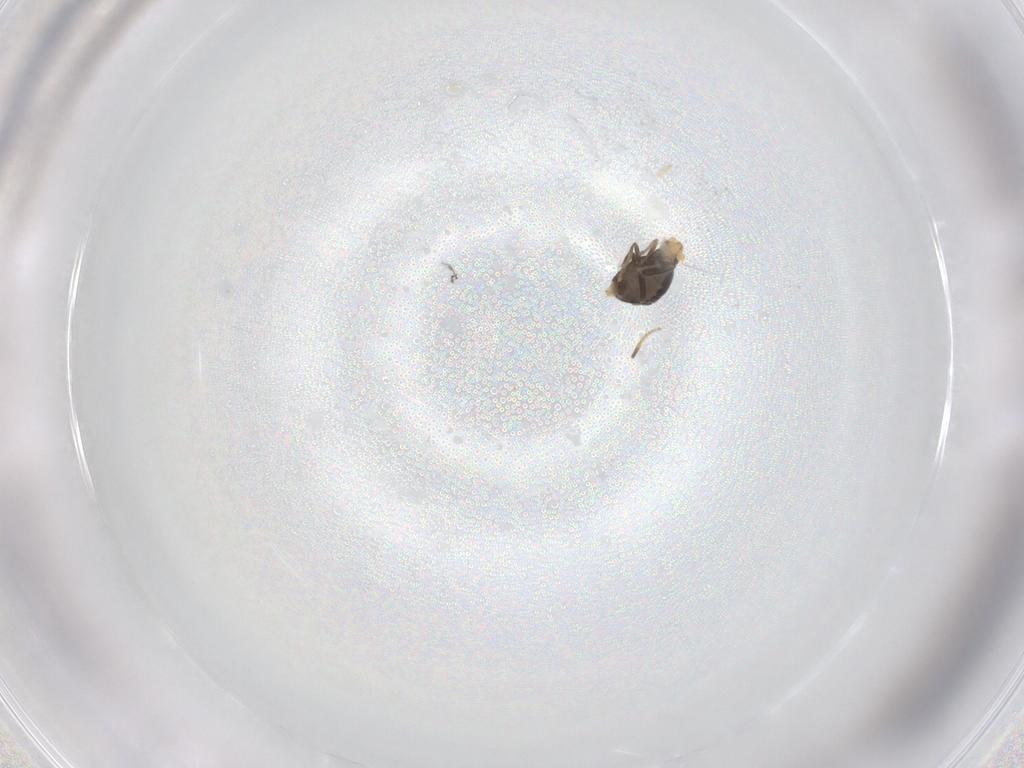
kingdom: Animalia
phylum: Arthropoda
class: Insecta
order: Diptera
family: Phoridae
